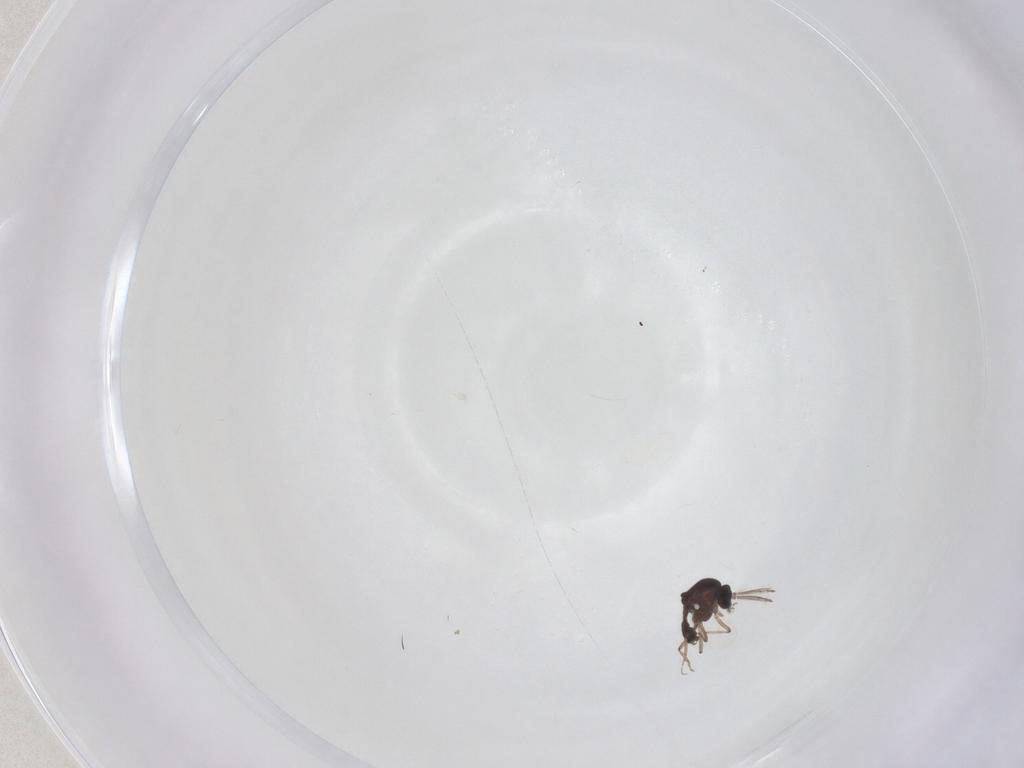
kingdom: Animalia
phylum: Arthropoda
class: Insecta
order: Diptera
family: Ceratopogonidae
